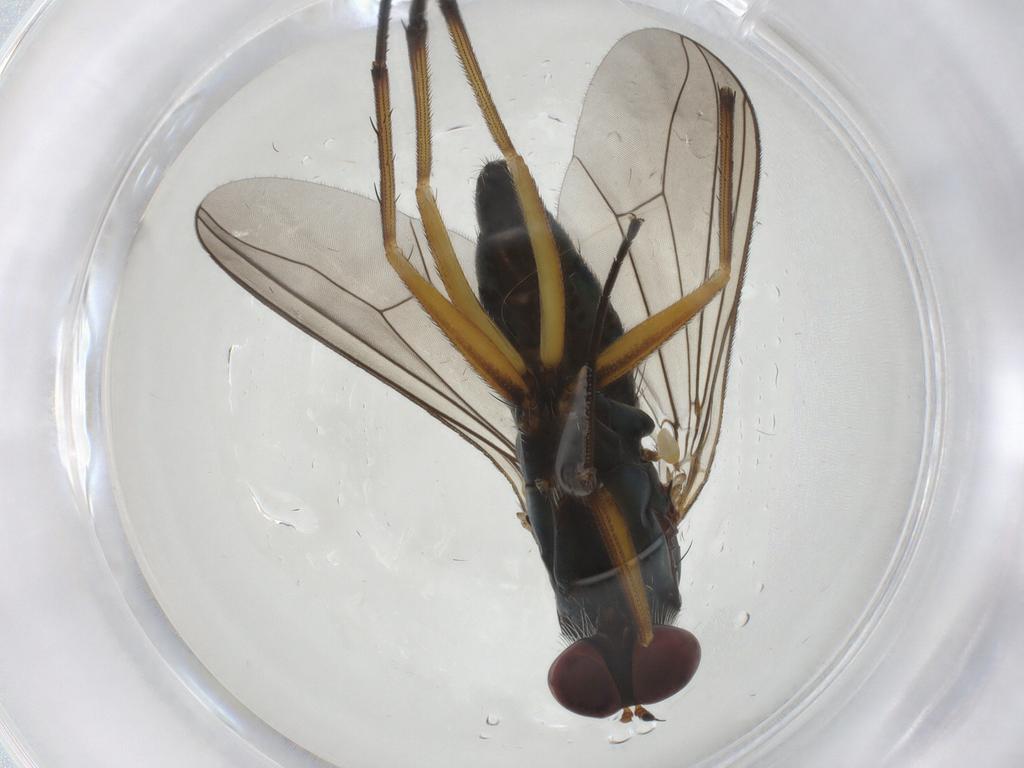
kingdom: Animalia
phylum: Arthropoda
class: Insecta
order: Diptera
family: Dolichopodidae
